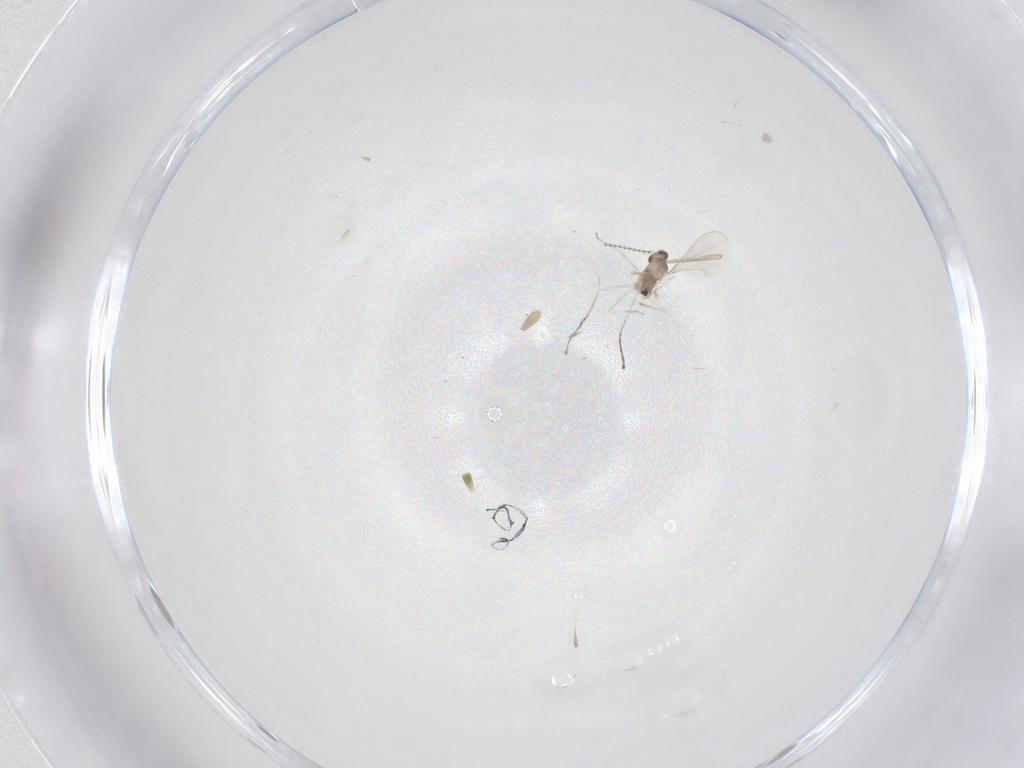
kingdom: Animalia
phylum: Arthropoda
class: Insecta
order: Diptera
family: Cecidomyiidae
